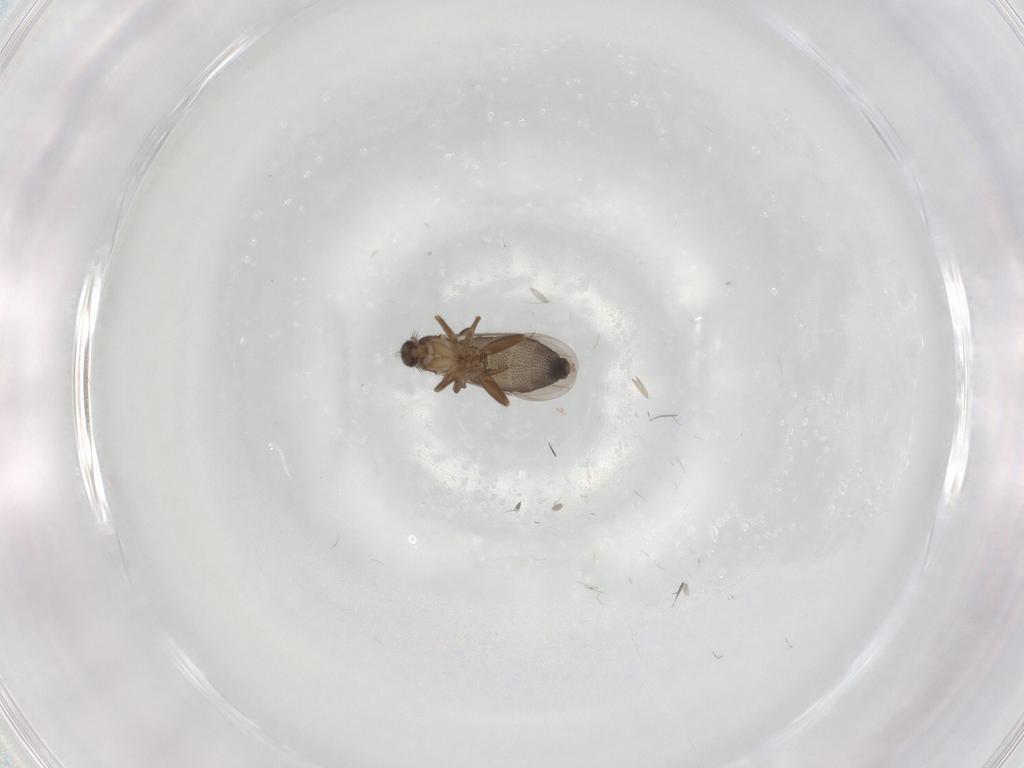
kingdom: Animalia
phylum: Arthropoda
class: Insecta
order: Diptera
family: Phoridae
